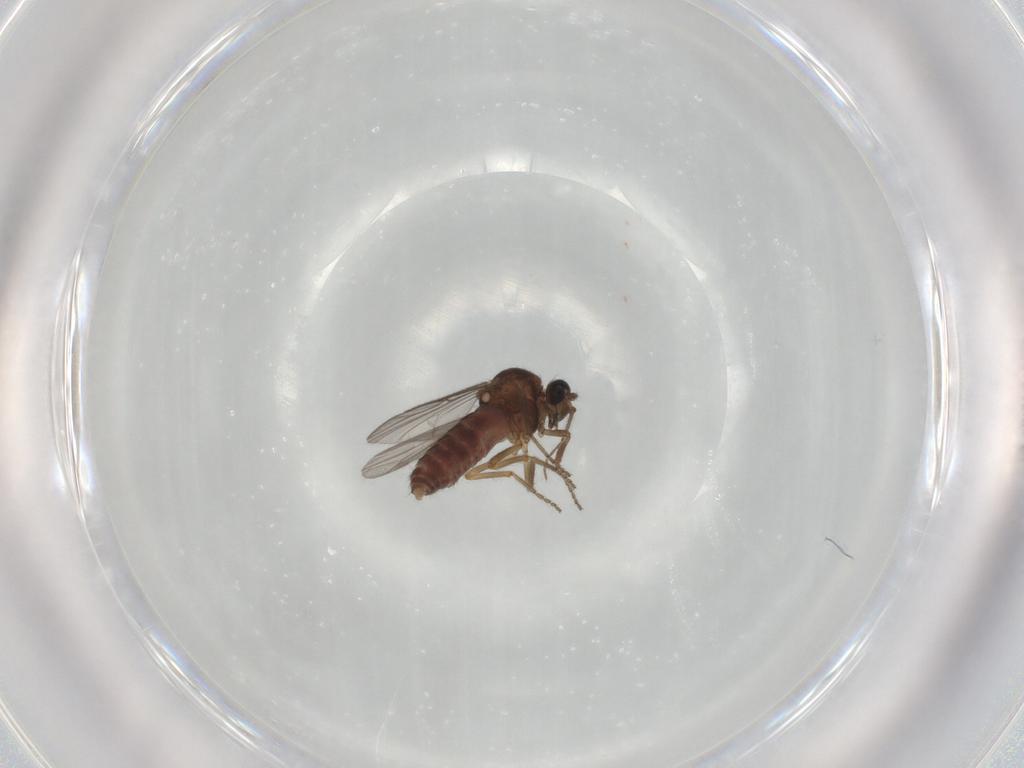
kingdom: Animalia
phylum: Arthropoda
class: Insecta
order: Diptera
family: Ceratopogonidae
